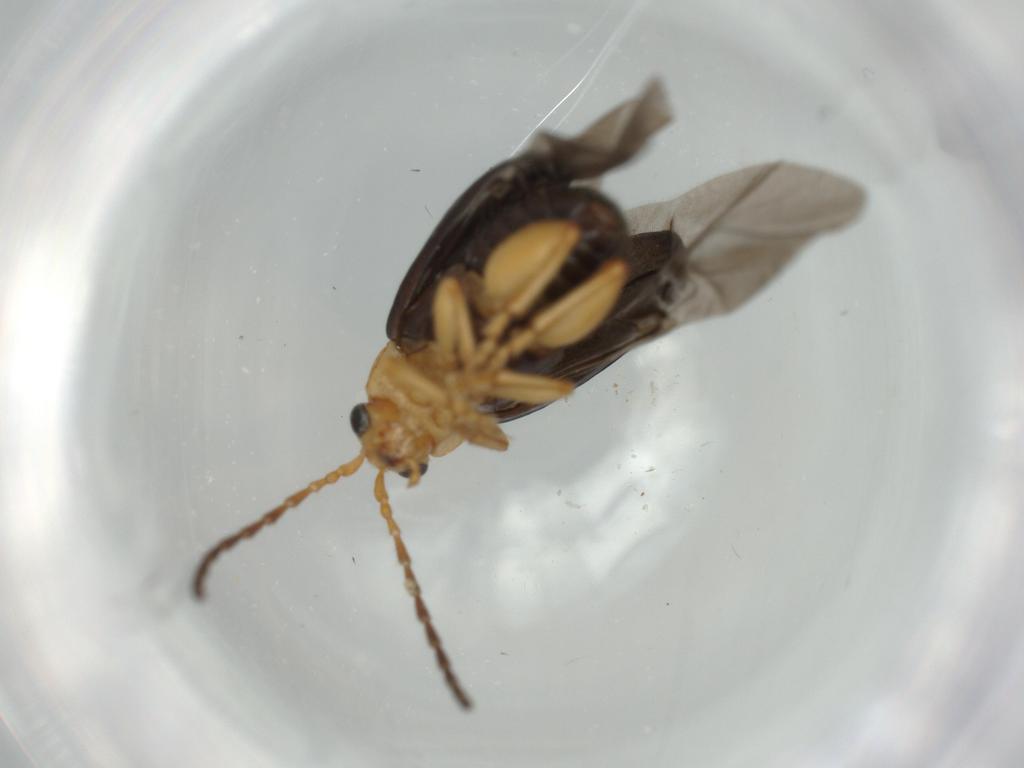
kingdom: Animalia
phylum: Arthropoda
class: Insecta
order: Coleoptera
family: Chrysomelidae
